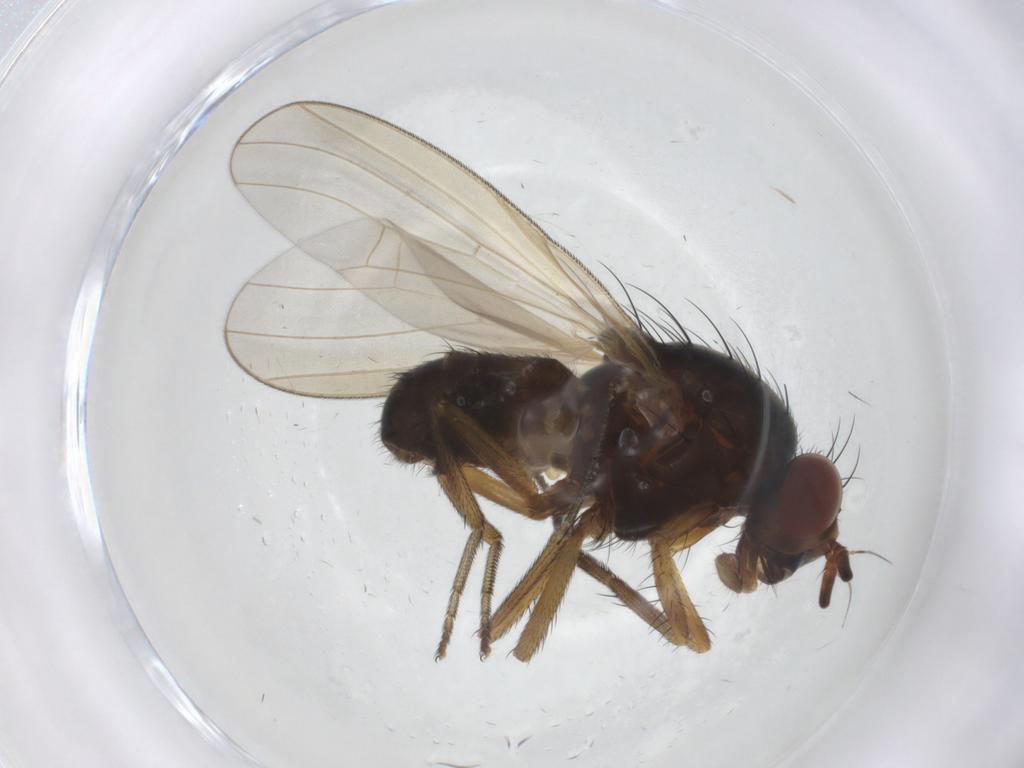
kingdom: Animalia
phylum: Arthropoda
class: Insecta
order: Diptera
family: Lauxaniidae
